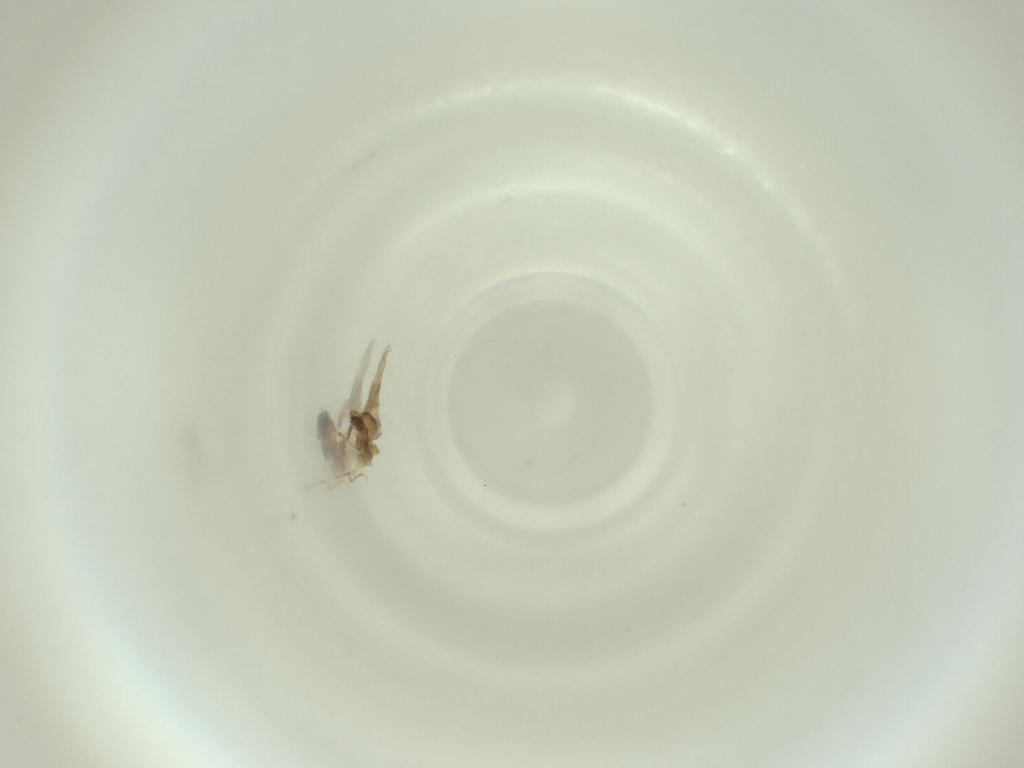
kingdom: Animalia
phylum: Arthropoda
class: Insecta
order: Diptera
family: Cecidomyiidae
